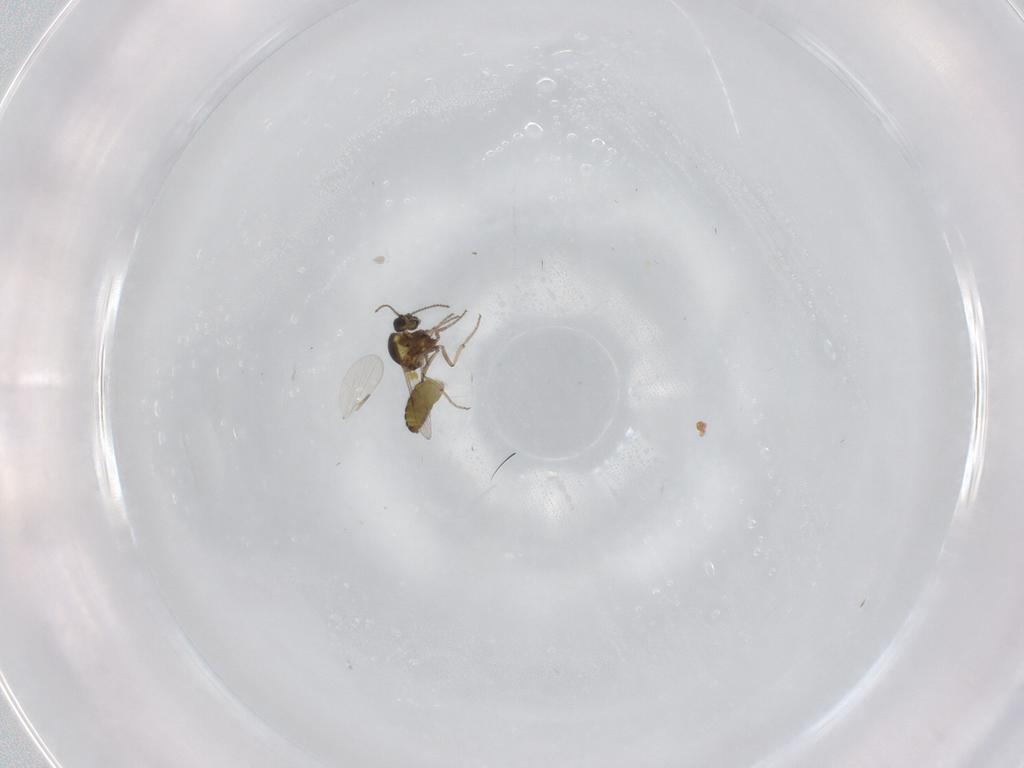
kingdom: Animalia
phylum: Arthropoda
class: Insecta
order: Diptera
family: Ceratopogonidae
